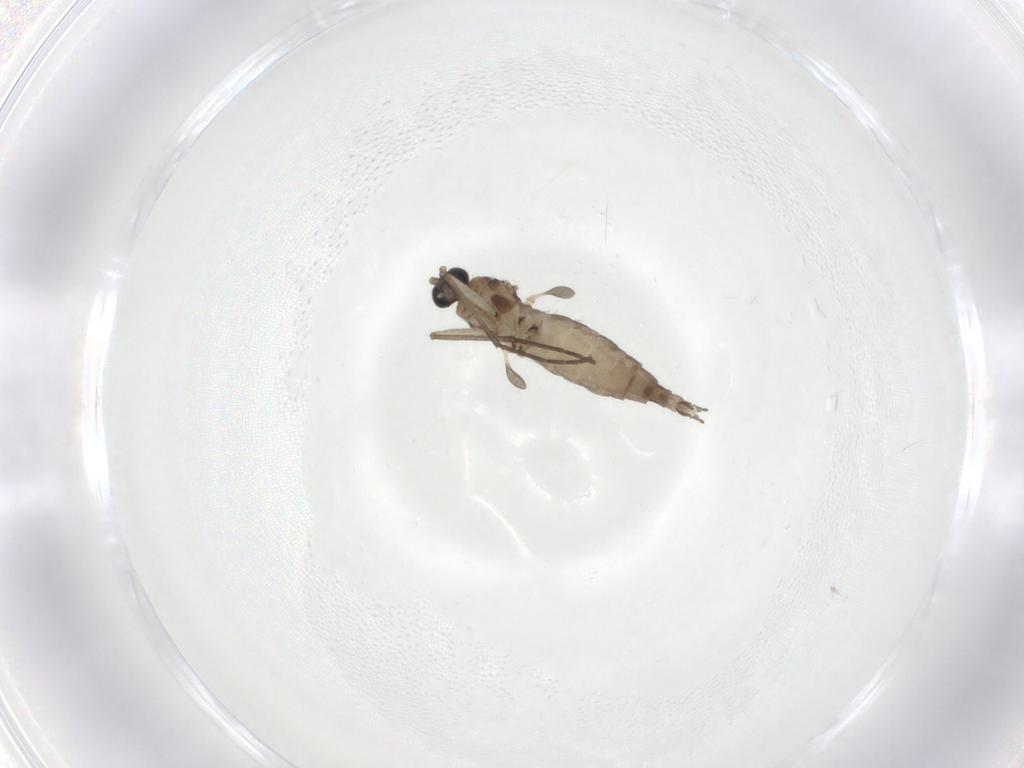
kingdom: Animalia
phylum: Arthropoda
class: Insecta
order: Diptera
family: Sciaridae
